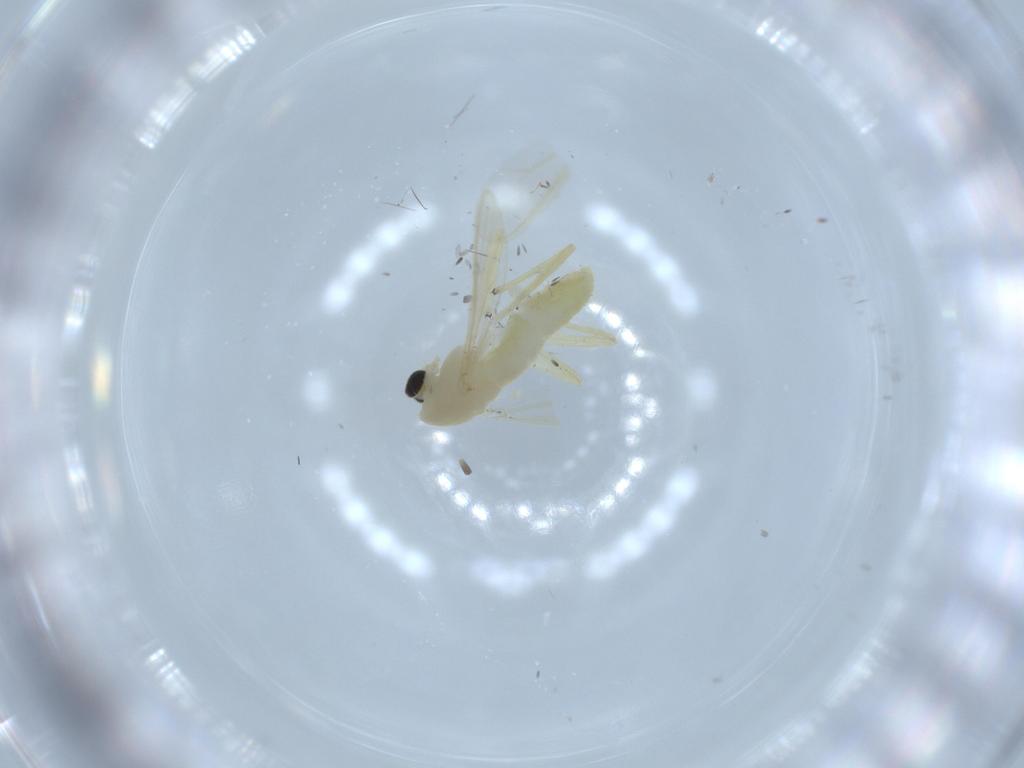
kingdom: Animalia
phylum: Arthropoda
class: Insecta
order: Diptera
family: Chironomidae
